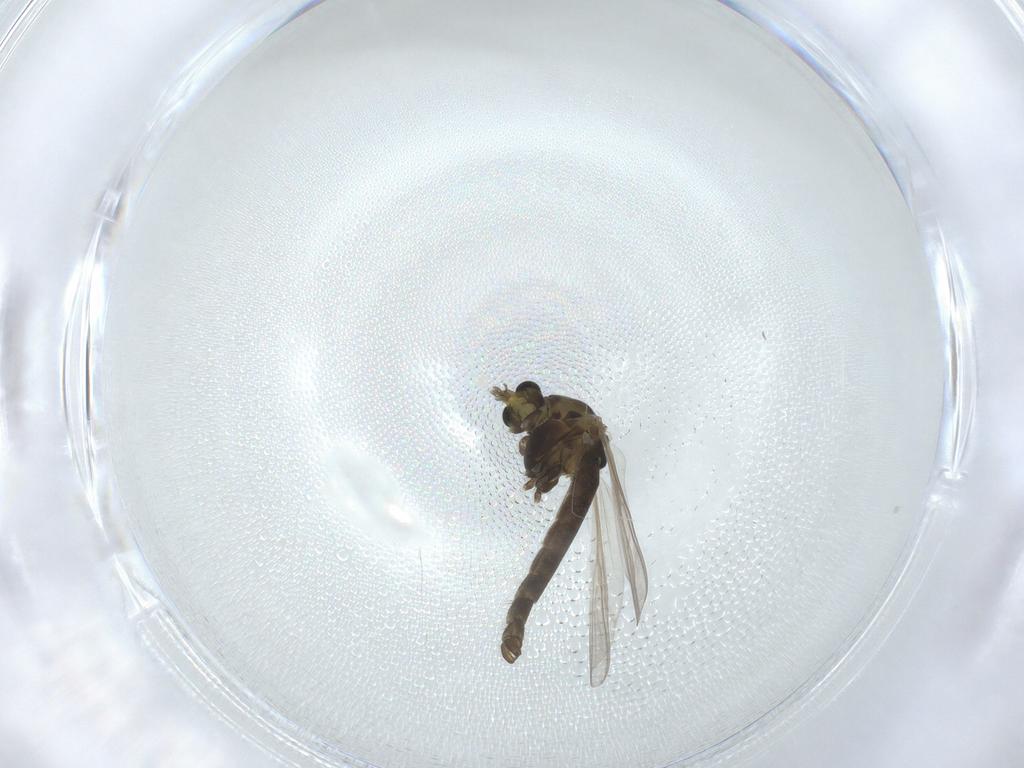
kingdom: Animalia
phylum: Arthropoda
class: Insecta
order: Diptera
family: Chironomidae
